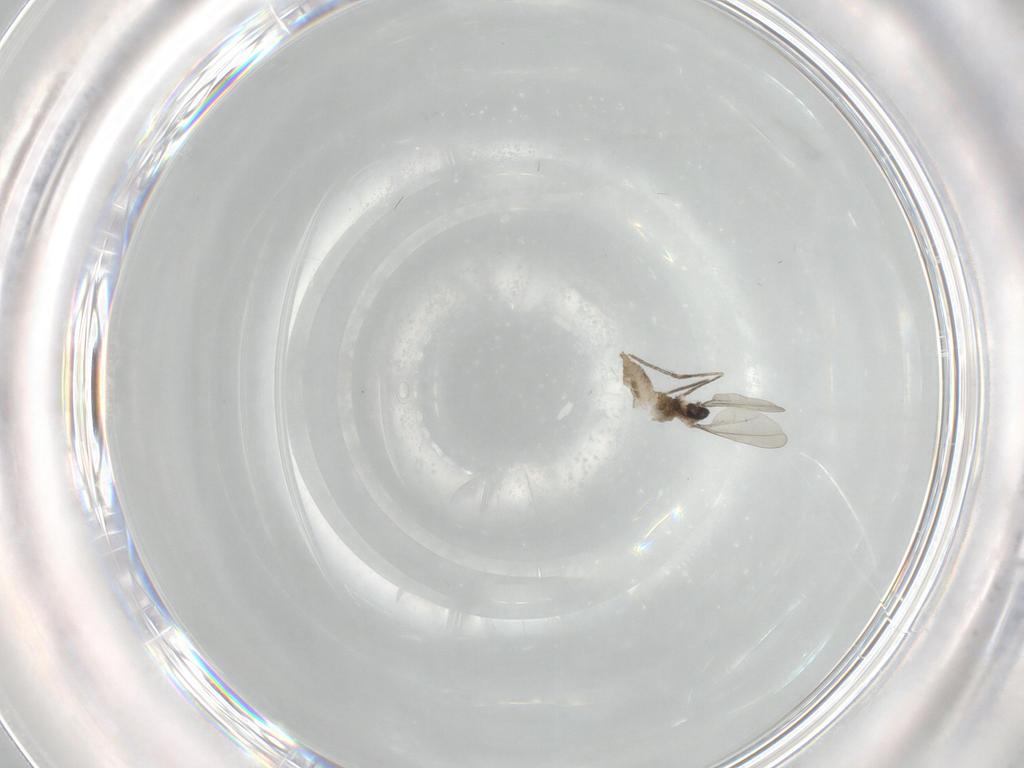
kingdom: Animalia
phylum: Arthropoda
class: Insecta
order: Diptera
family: Cecidomyiidae
